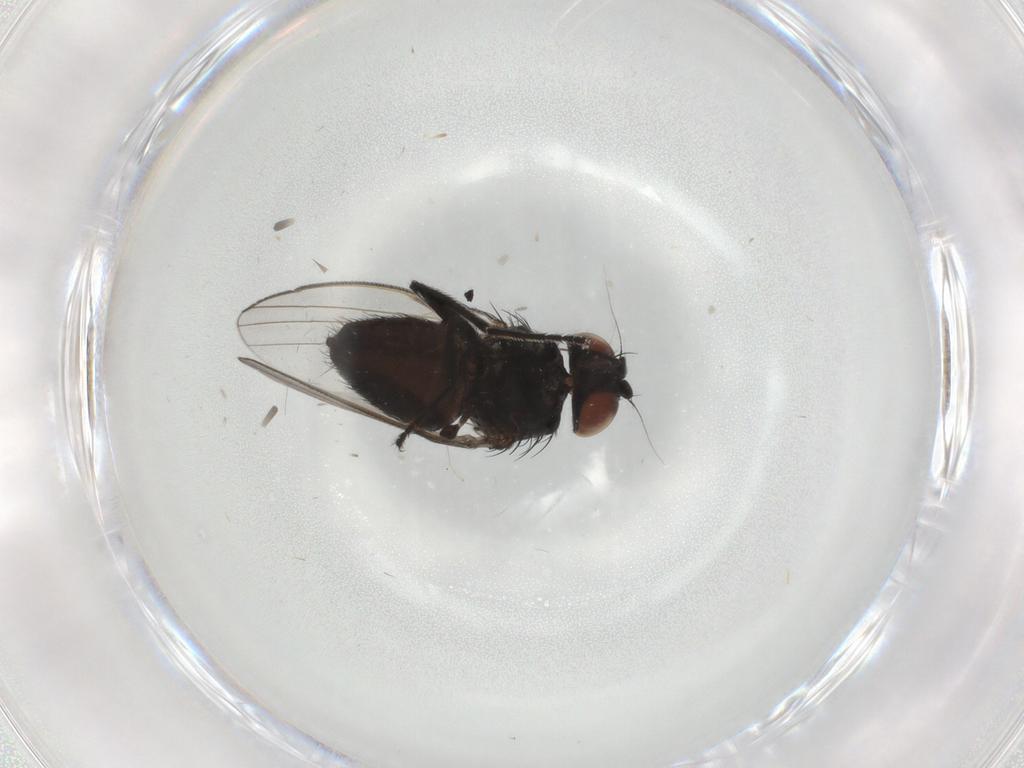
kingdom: Animalia
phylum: Arthropoda
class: Insecta
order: Diptera
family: Milichiidae
